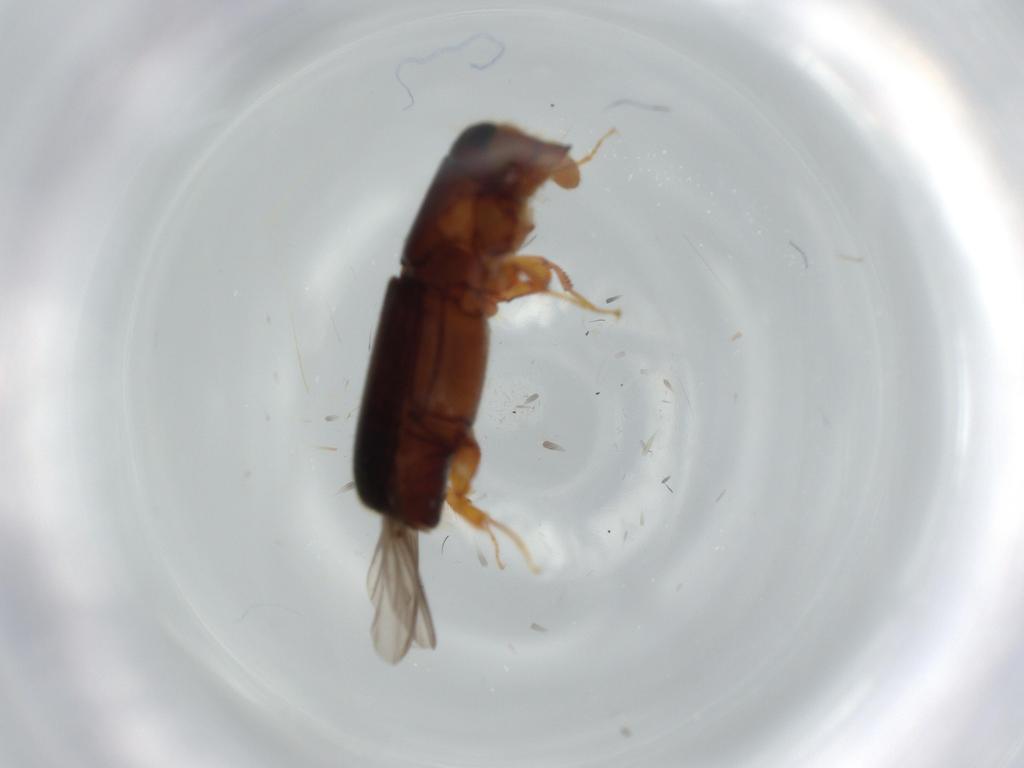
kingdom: Animalia
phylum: Arthropoda
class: Insecta
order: Coleoptera
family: Curculionidae
